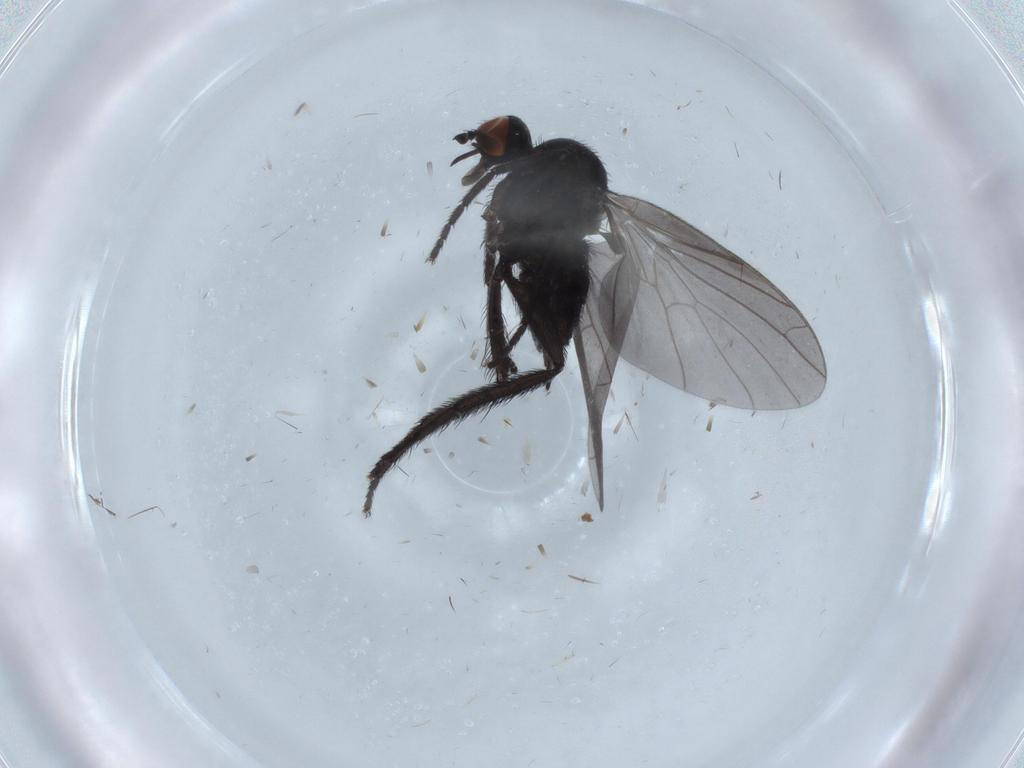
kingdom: Animalia
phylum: Arthropoda
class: Insecta
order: Diptera
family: Empididae
